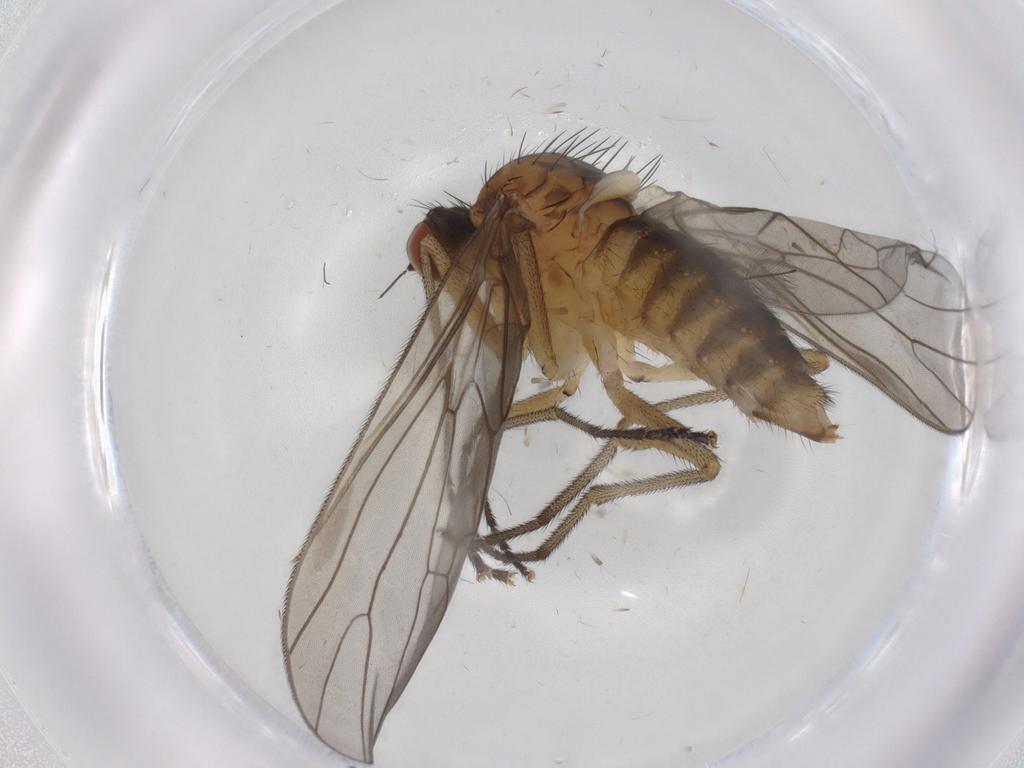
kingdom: Animalia
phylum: Arthropoda
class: Insecta
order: Diptera
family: Brachystomatidae
